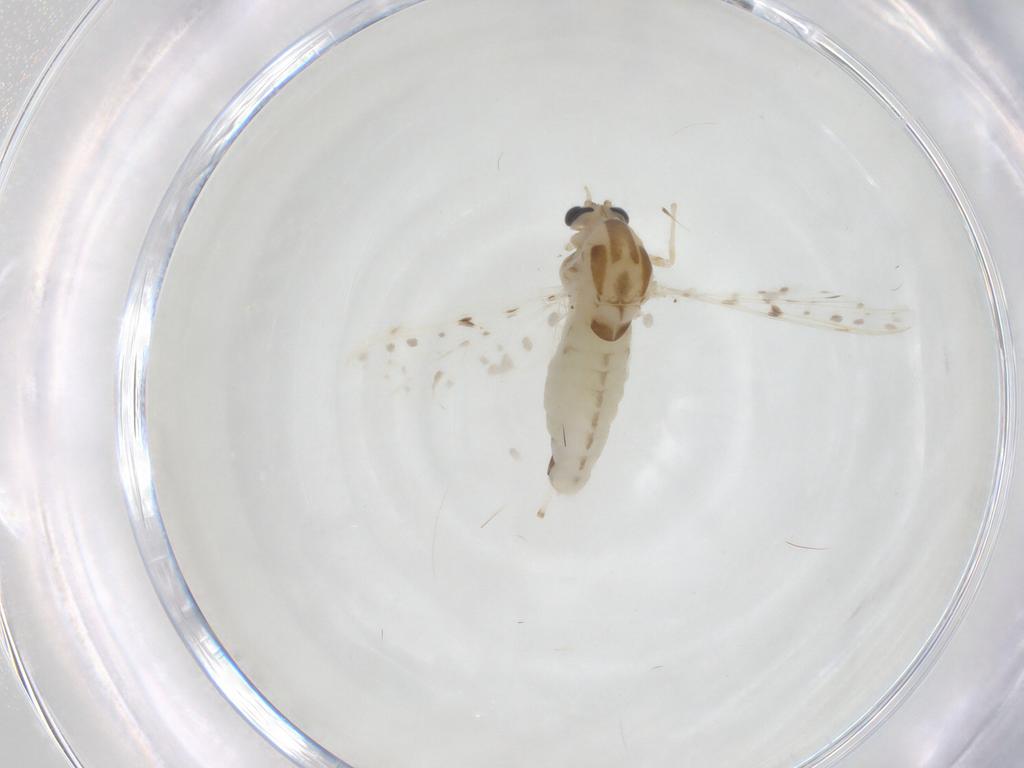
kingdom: Animalia
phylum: Arthropoda
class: Insecta
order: Diptera
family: Chironomidae
